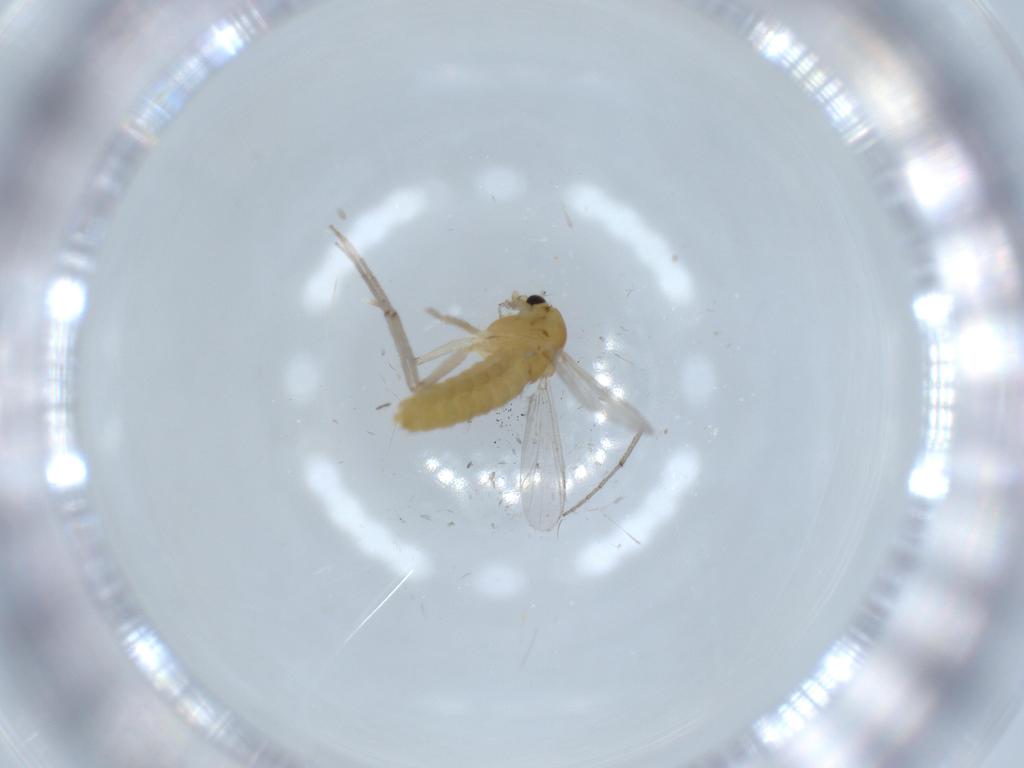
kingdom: Animalia
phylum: Arthropoda
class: Insecta
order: Diptera
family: Chironomidae
